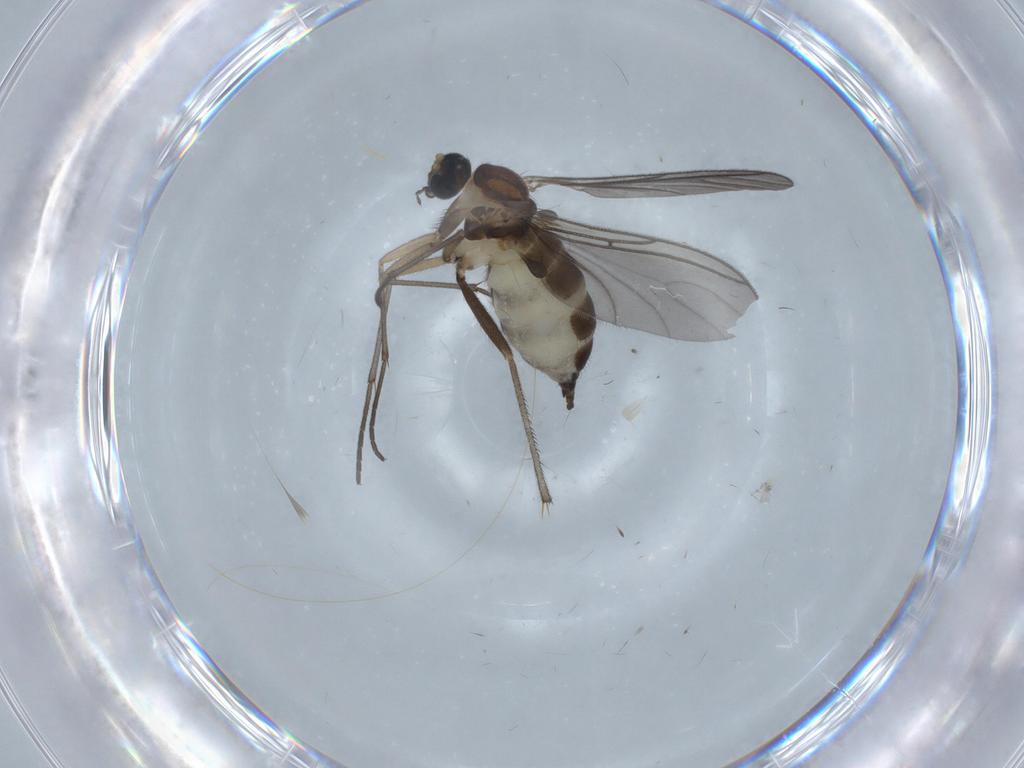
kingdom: Animalia
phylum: Arthropoda
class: Insecta
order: Diptera
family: Sciaridae
